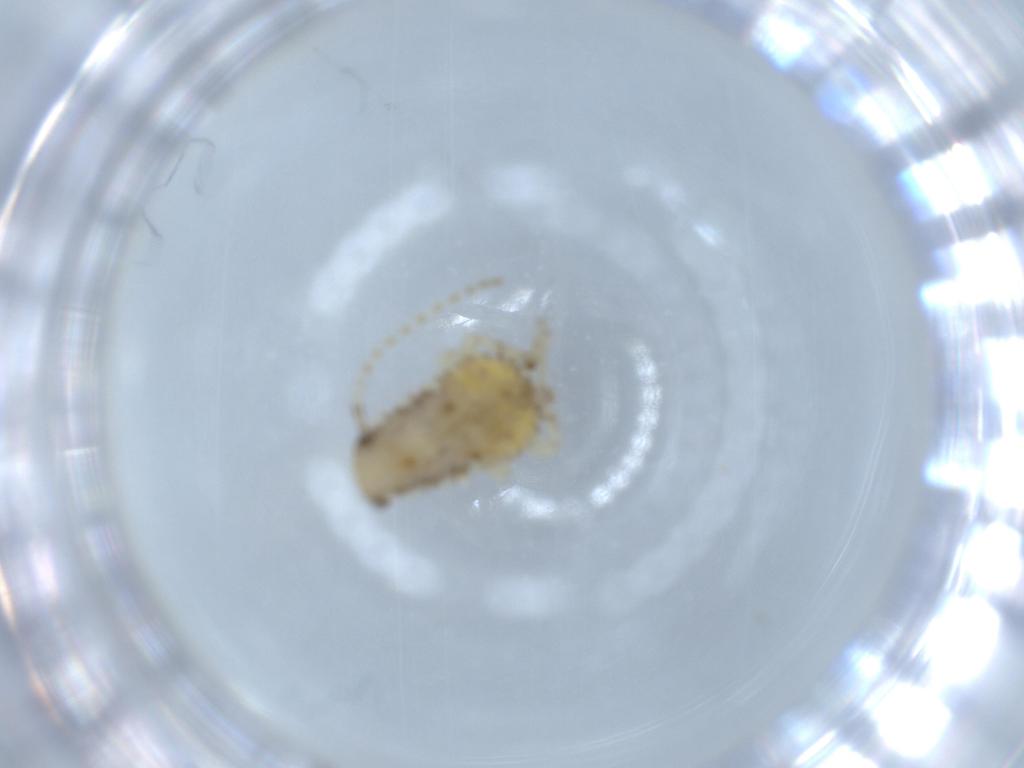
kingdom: Animalia
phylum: Arthropoda
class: Insecta
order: Blattodea
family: Ectobiidae
